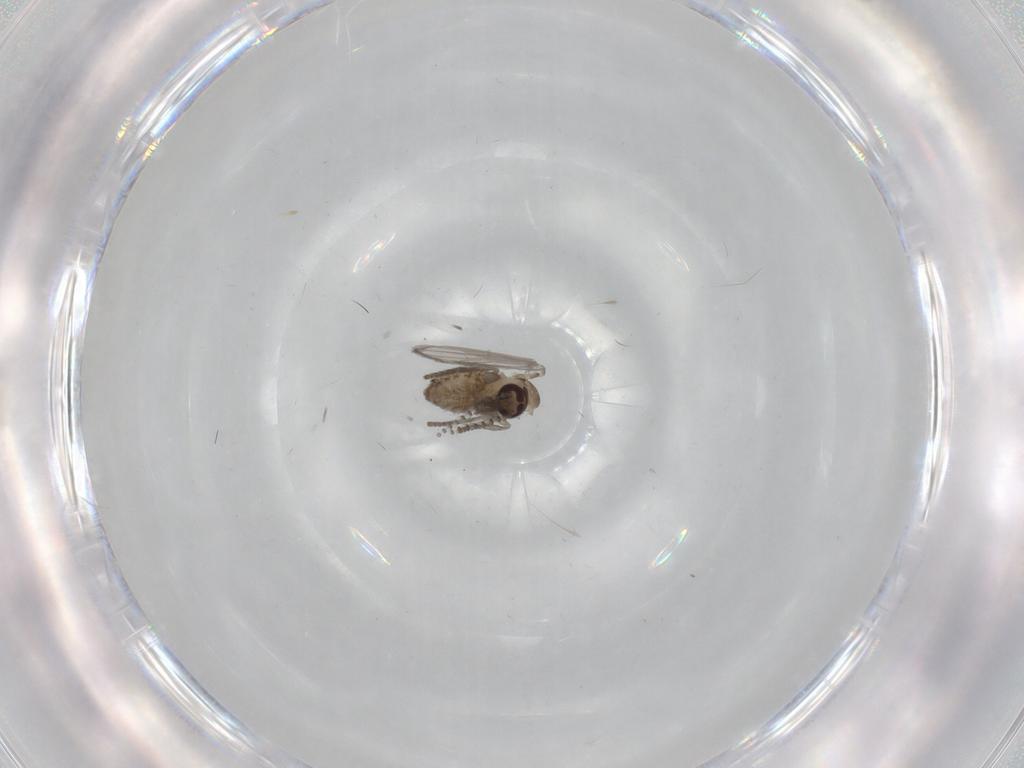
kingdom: Animalia
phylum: Arthropoda
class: Insecta
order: Diptera
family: Psychodidae
